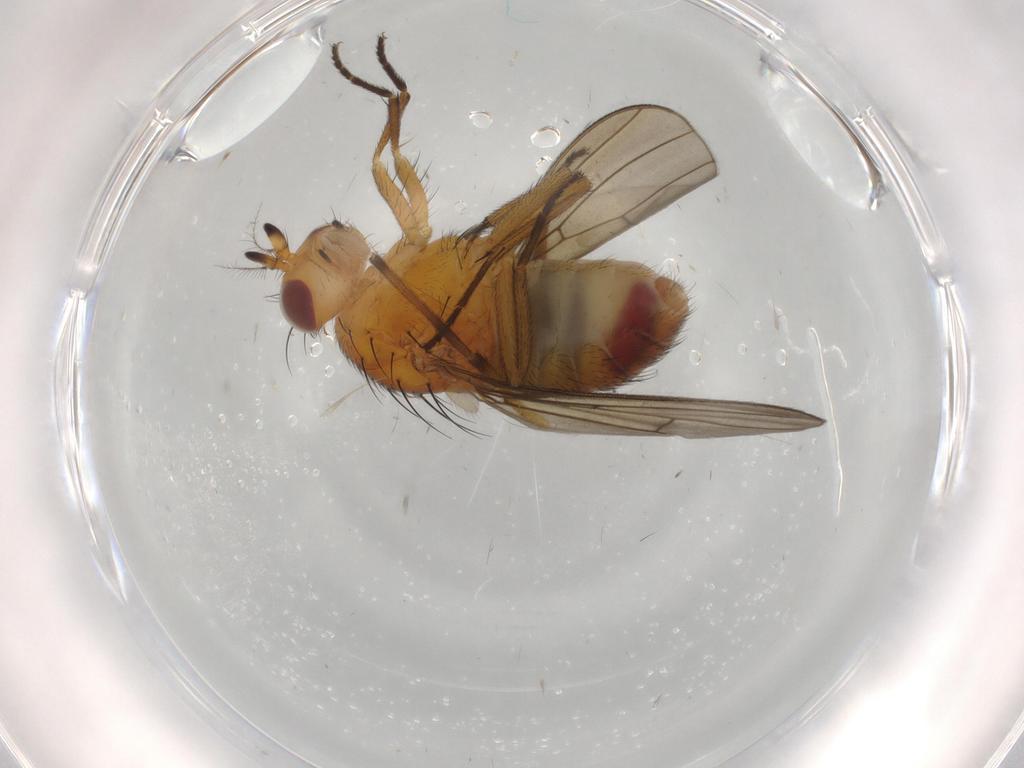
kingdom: Animalia
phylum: Arthropoda
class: Insecta
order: Diptera
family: Lauxaniidae
